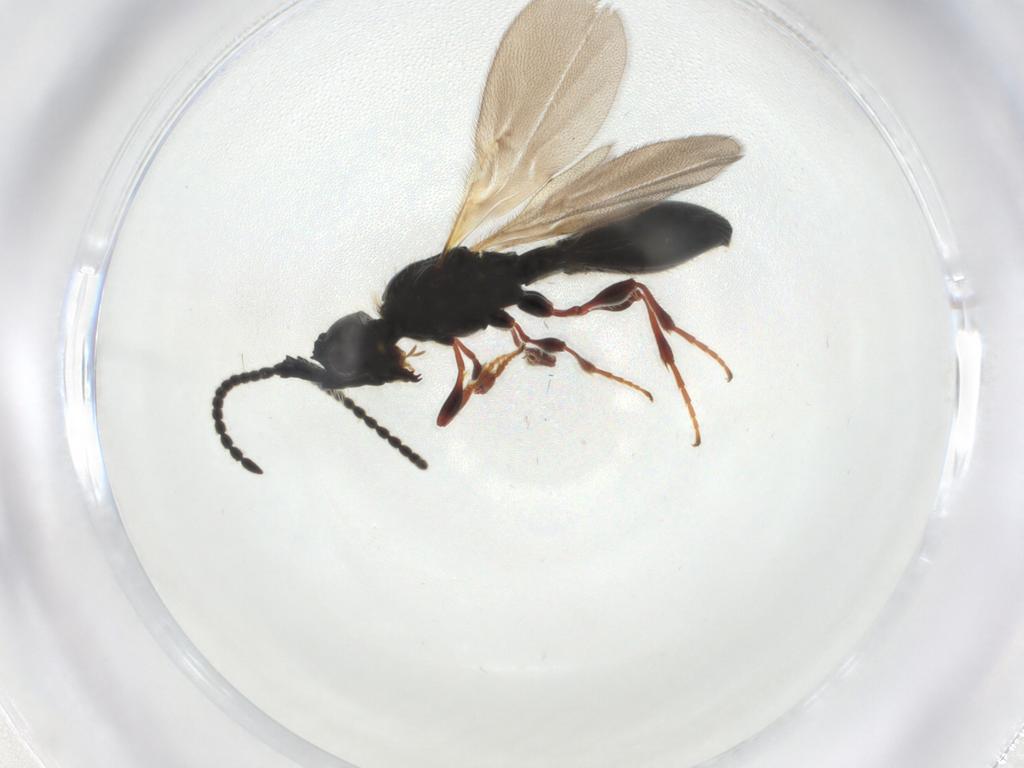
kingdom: Animalia
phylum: Arthropoda
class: Insecta
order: Hymenoptera
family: Diapriidae
